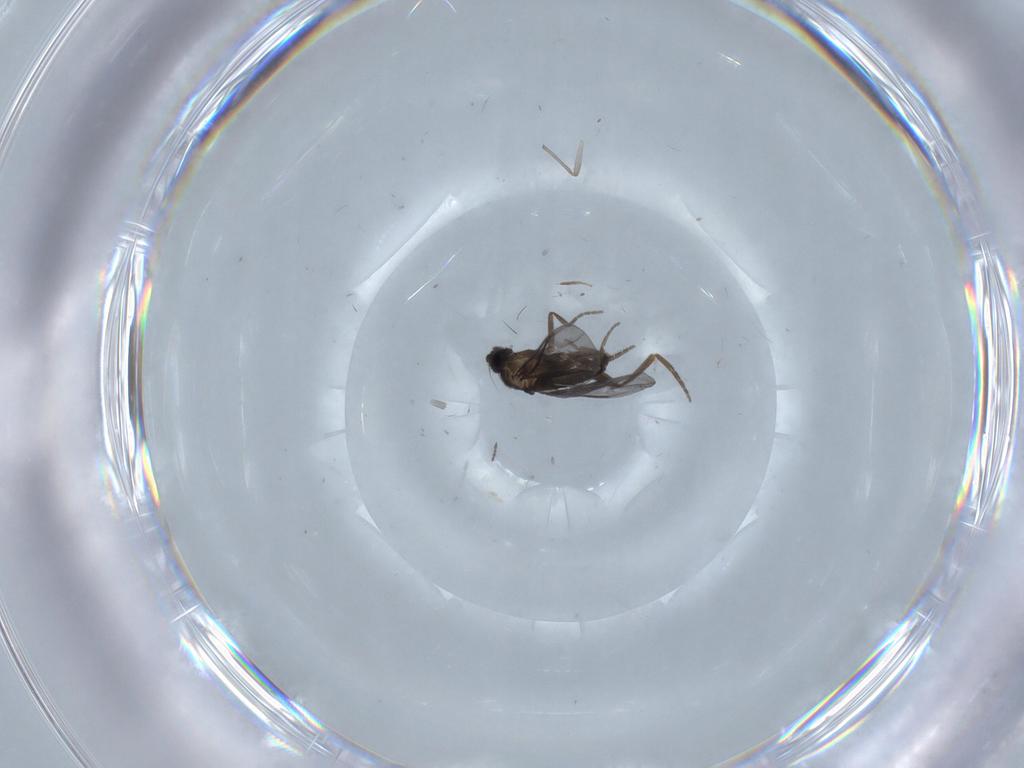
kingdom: Animalia
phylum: Arthropoda
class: Insecta
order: Diptera
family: Phoridae
